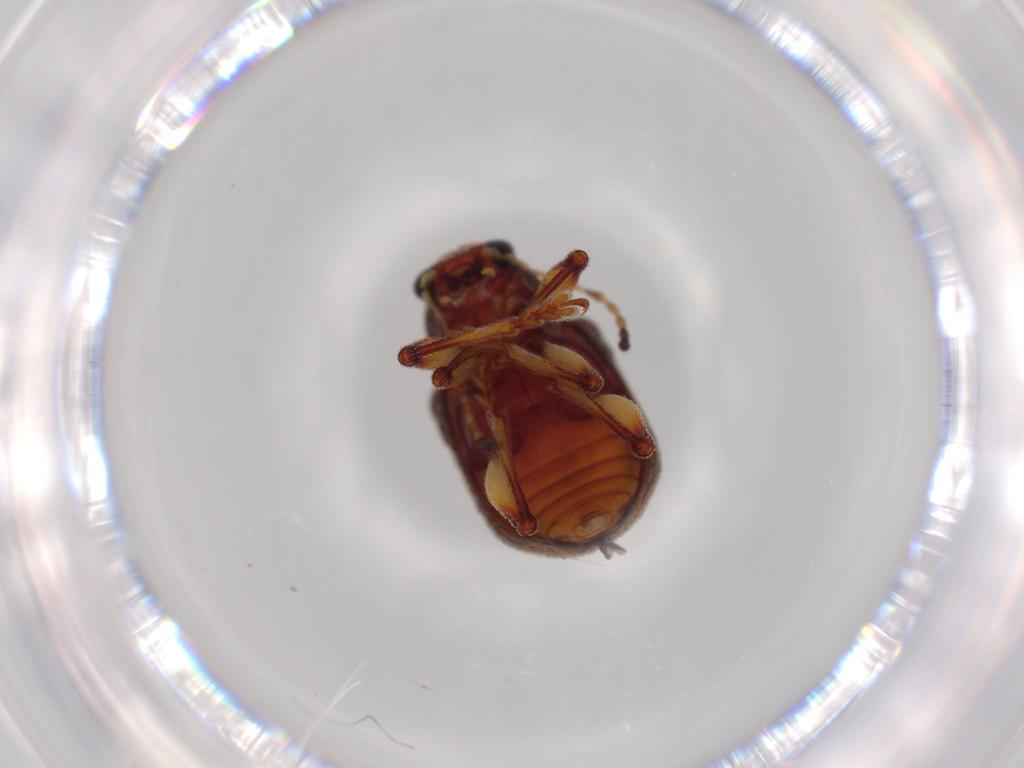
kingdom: Animalia
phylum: Arthropoda
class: Insecta
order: Coleoptera
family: Chrysomelidae
